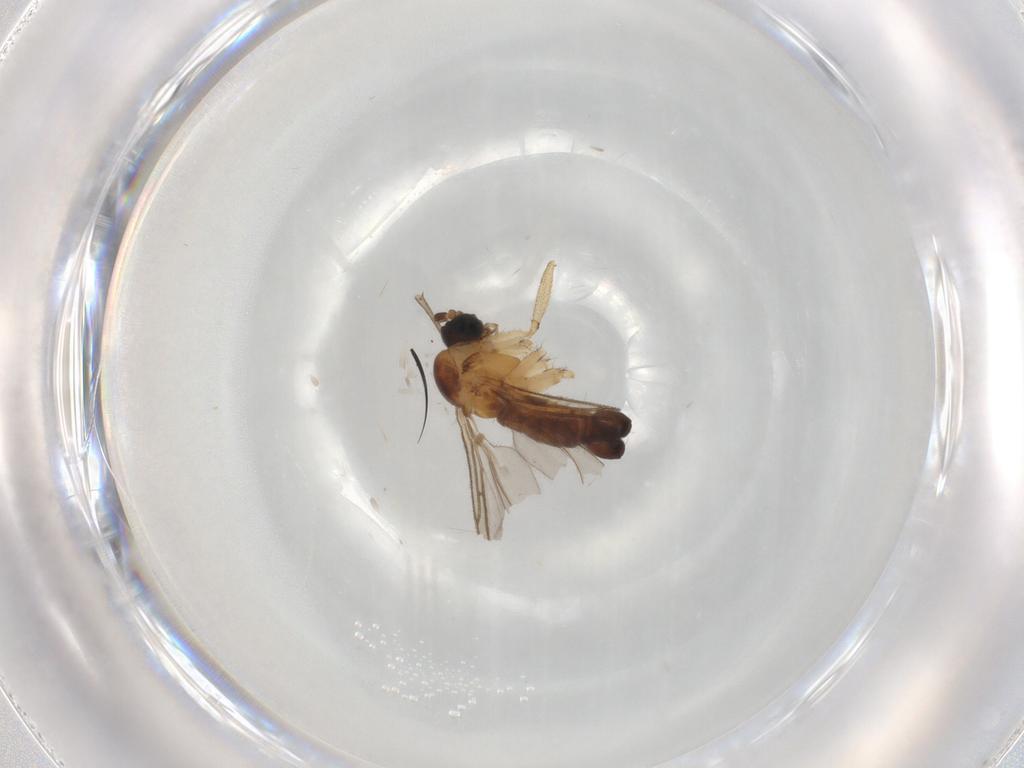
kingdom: Animalia
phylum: Arthropoda
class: Insecta
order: Diptera
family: Sciaridae
